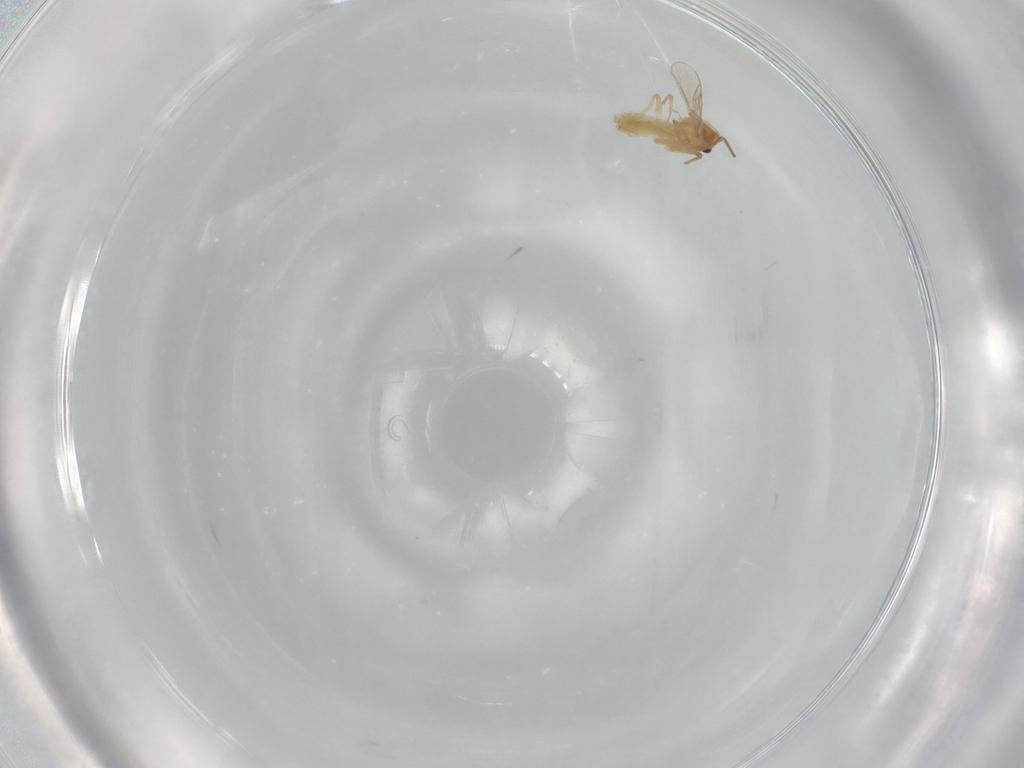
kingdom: Animalia
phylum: Arthropoda
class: Insecta
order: Diptera
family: Chironomidae
